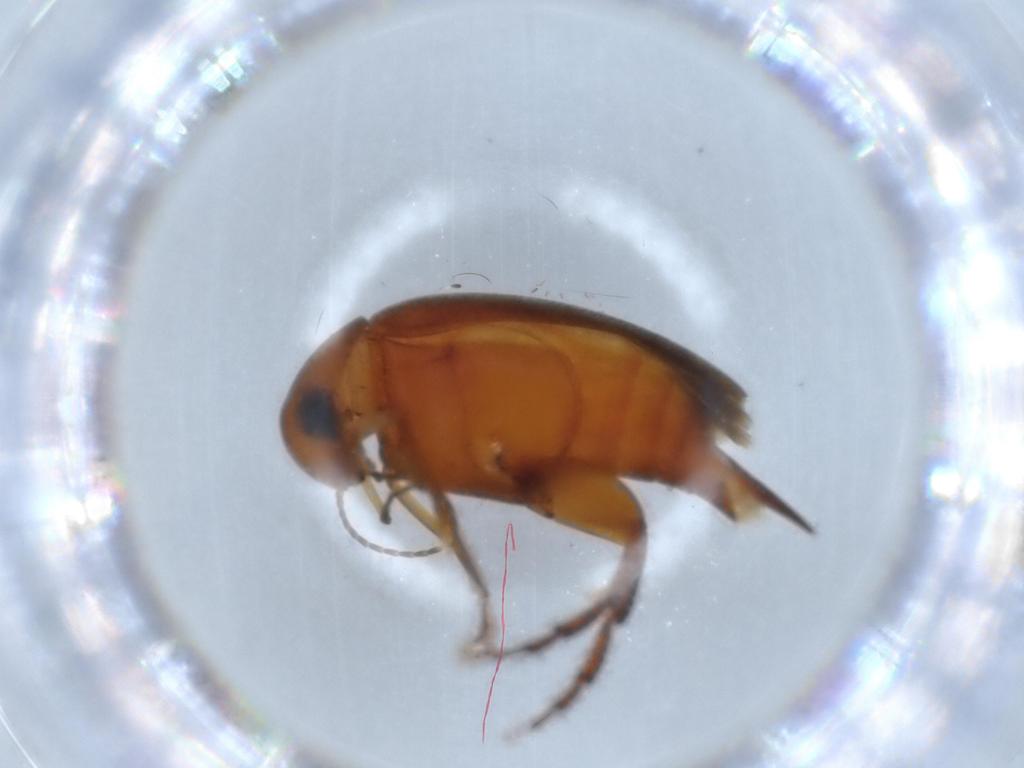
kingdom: Animalia
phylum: Arthropoda
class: Insecta
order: Coleoptera
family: Mordellidae
